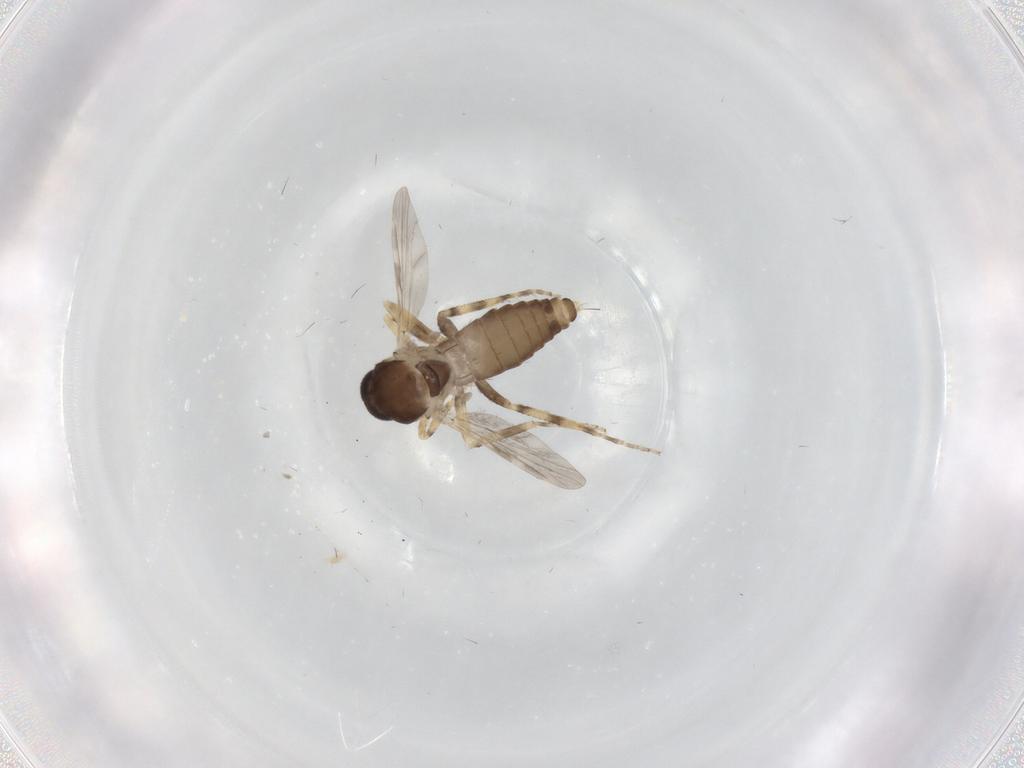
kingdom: Animalia
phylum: Arthropoda
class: Insecta
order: Diptera
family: Ceratopogonidae
